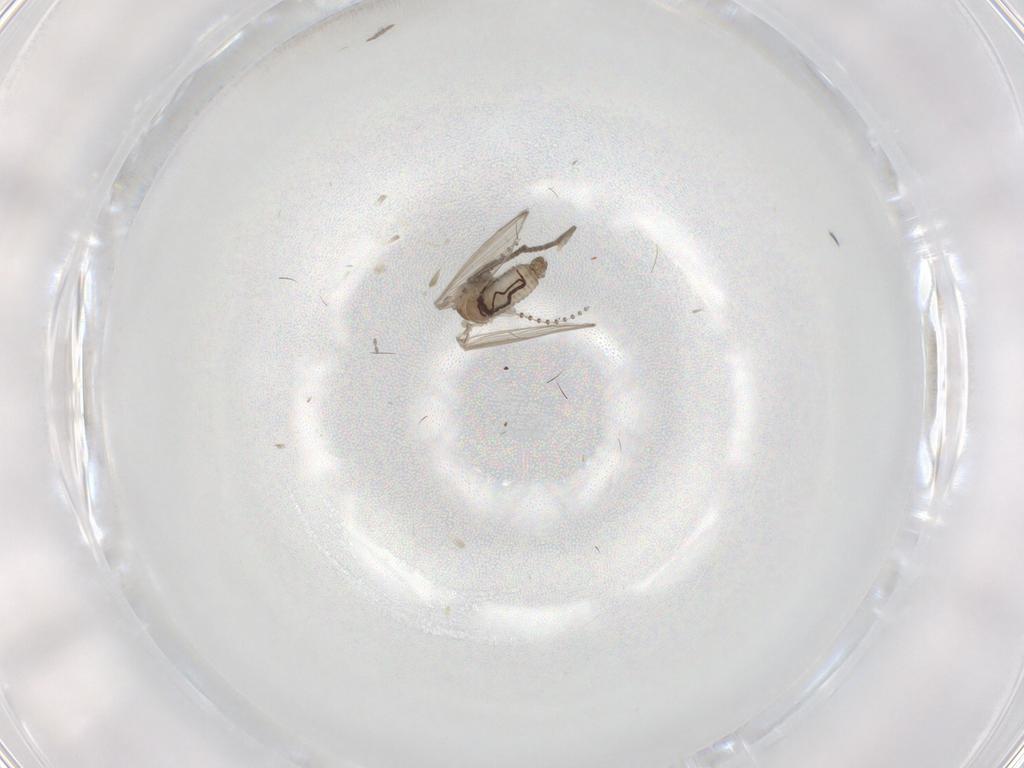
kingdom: Animalia
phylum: Arthropoda
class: Insecta
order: Diptera
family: Psychodidae
